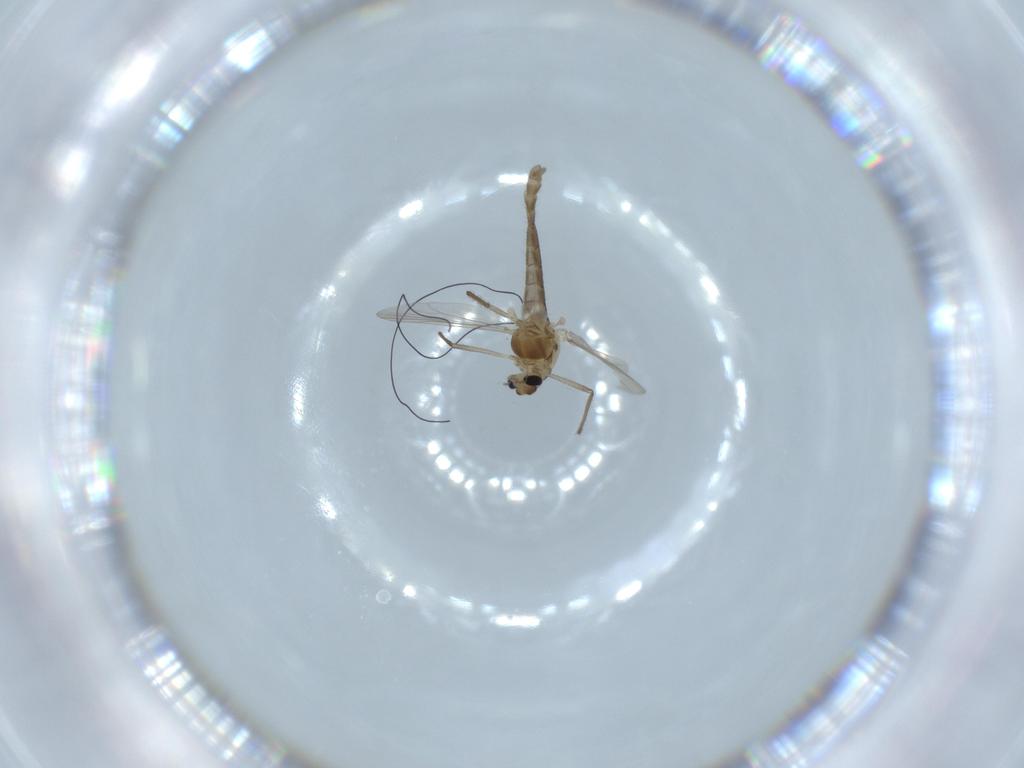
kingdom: Animalia
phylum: Arthropoda
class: Insecta
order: Diptera
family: Chironomidae
